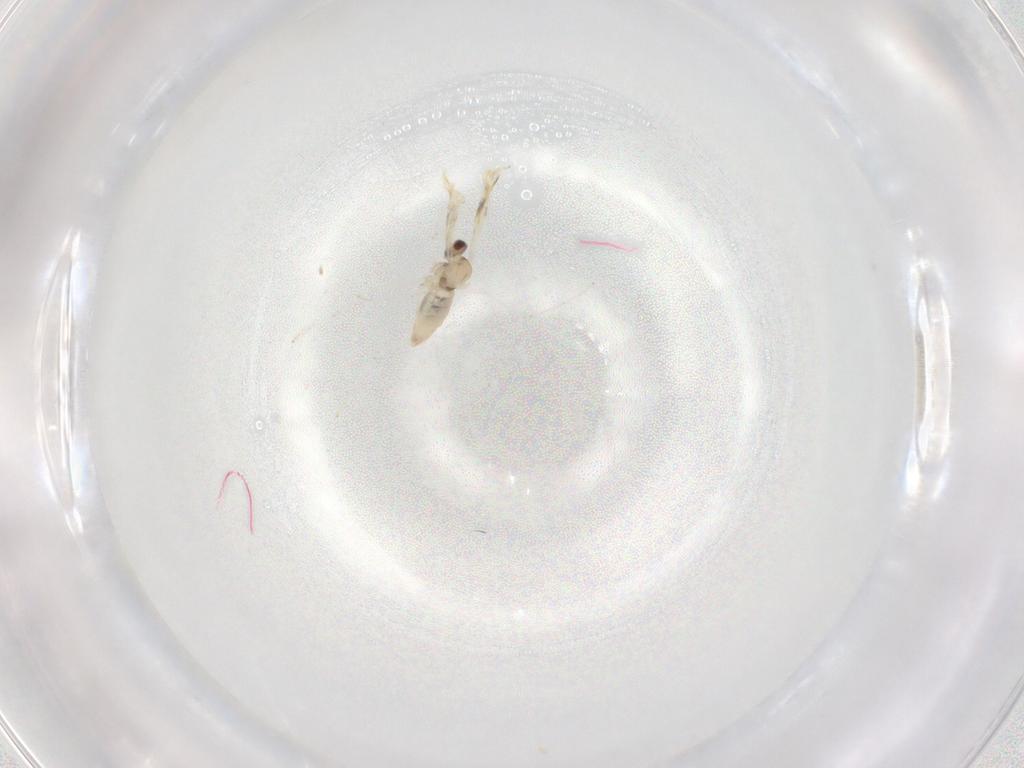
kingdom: Animalia
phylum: Arthropoda
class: Insecta
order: Diptera
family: Cecidomyiidae
